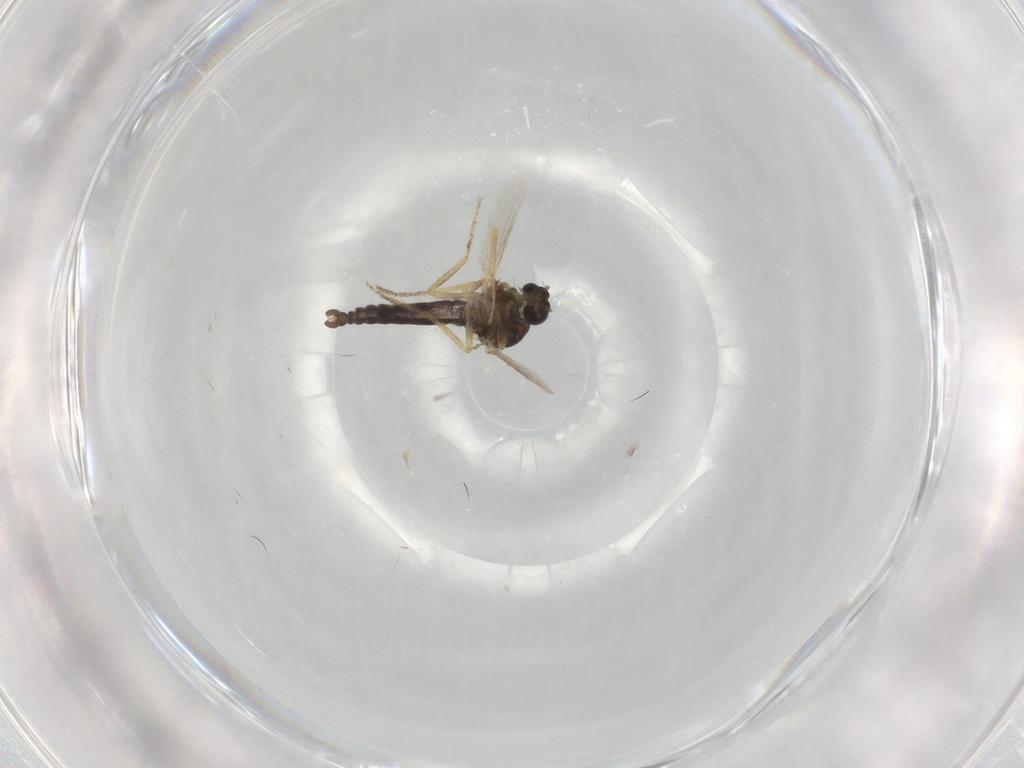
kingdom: Animalia
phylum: Arthropoda
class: Insecta
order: Diptera
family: Ceratopogonidae
